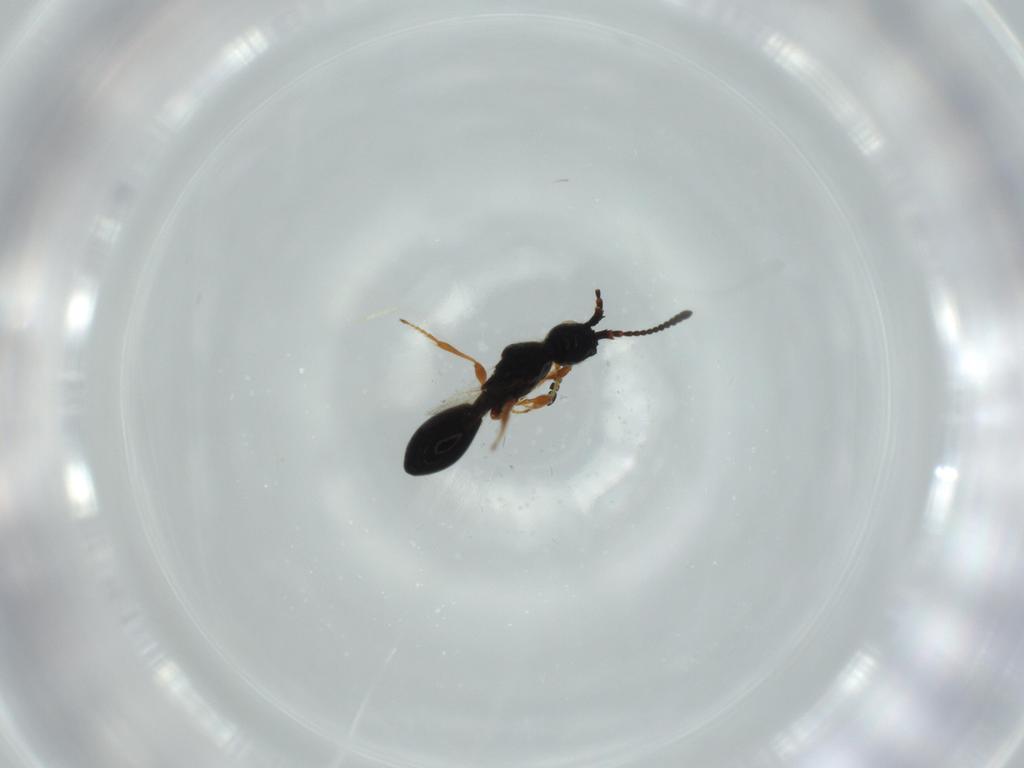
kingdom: Animalia
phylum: Arthropoda
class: Insecta
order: Hymenoptera
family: Diapriidae
